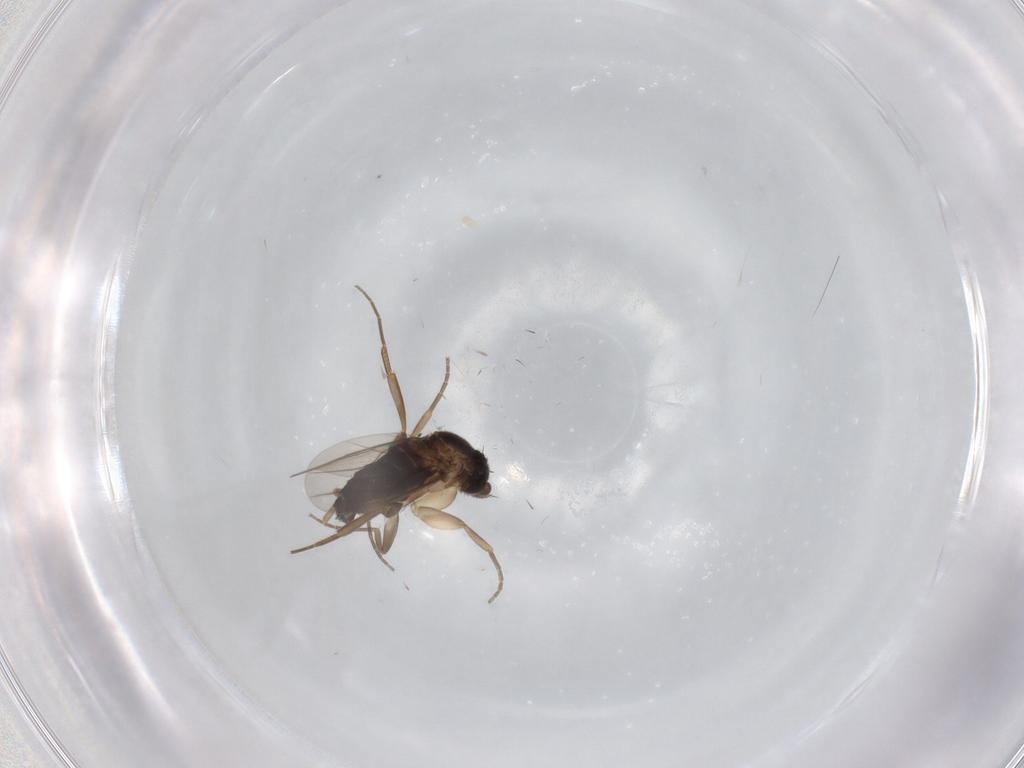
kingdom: Animalia
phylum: Arthropoda
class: Insecta
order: Diptera
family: Phoridae
